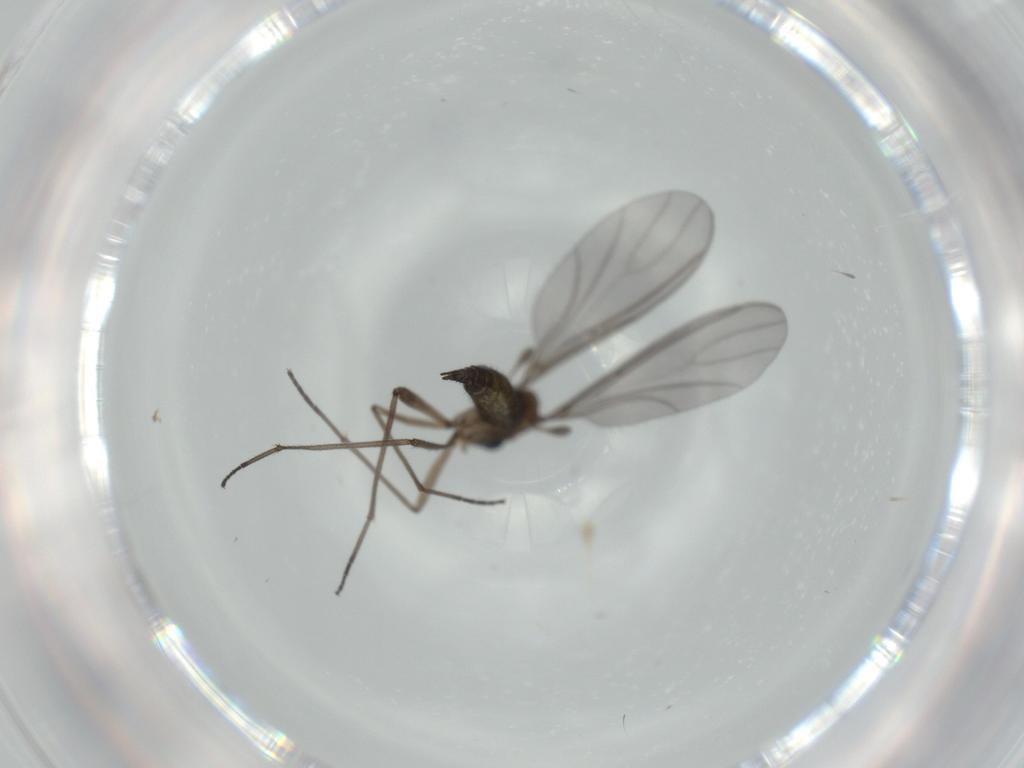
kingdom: Animalia
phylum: Arthropoda
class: Insecta
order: Diptera
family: Sciaridae
